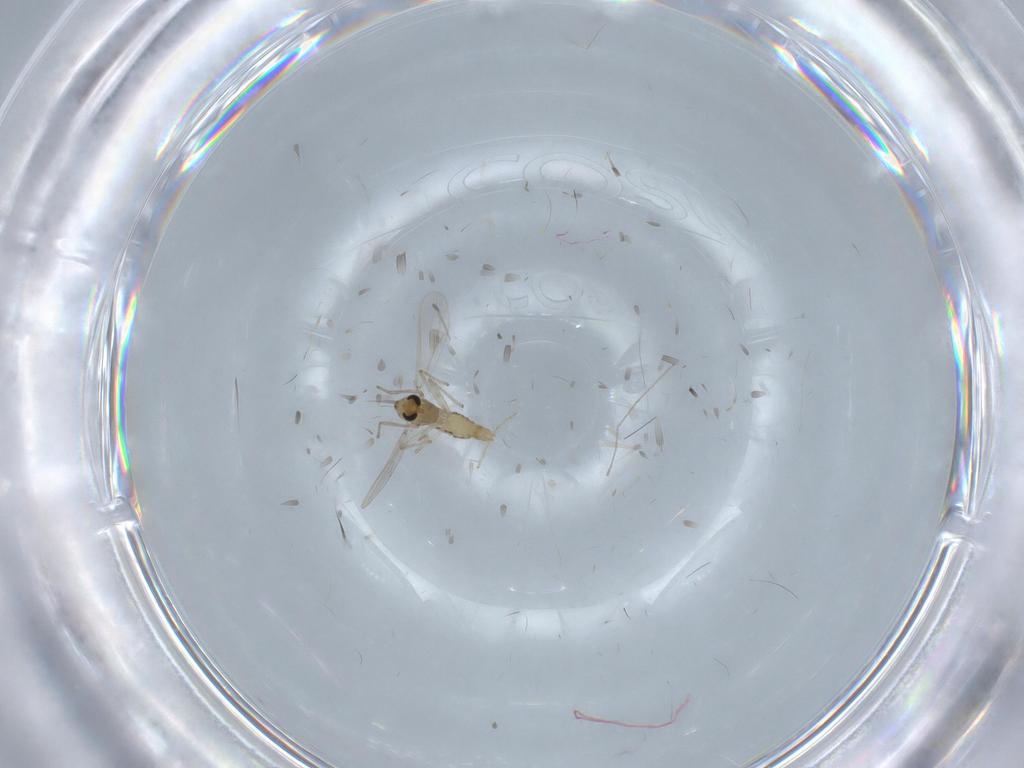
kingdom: Animalia
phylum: Arthropoda
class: Insecta
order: Diptera
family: Chironomidae
